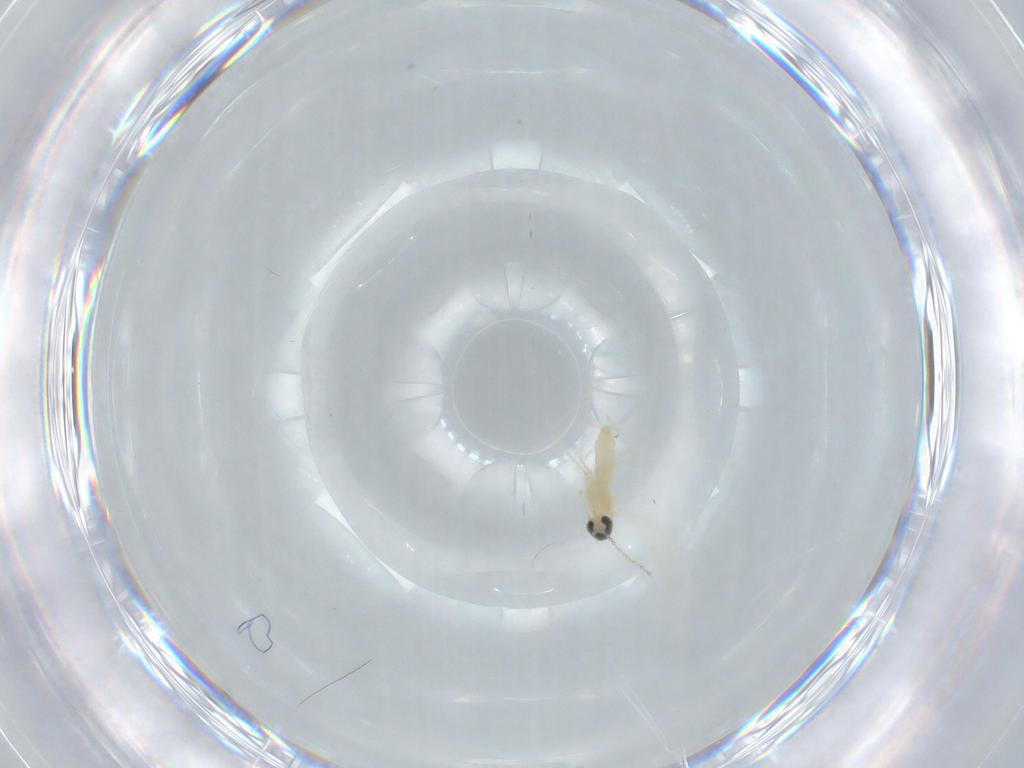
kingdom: Animalia
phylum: Arthropoda
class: Insecta
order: Diptera
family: Cecidomyiidae
